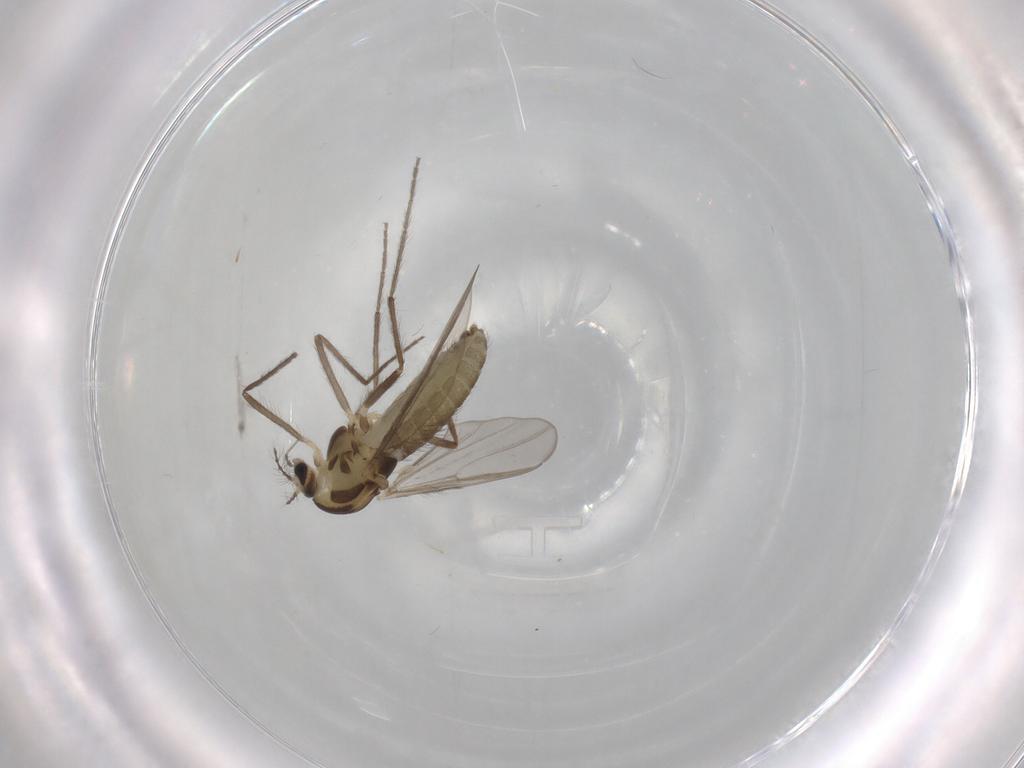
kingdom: Animalia
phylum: Arthropoda
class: Insecta
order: Diptera
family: Chironomidae
